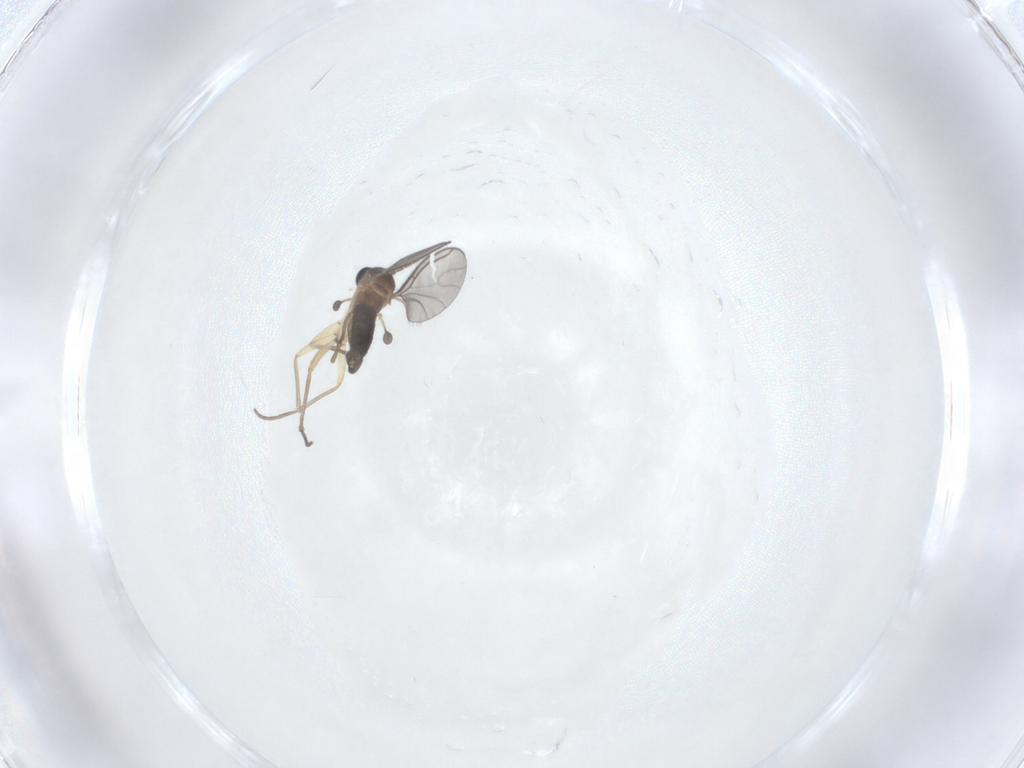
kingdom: Animalia
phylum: Arthropoda
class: Insecta
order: Diptera
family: Sciaridae
